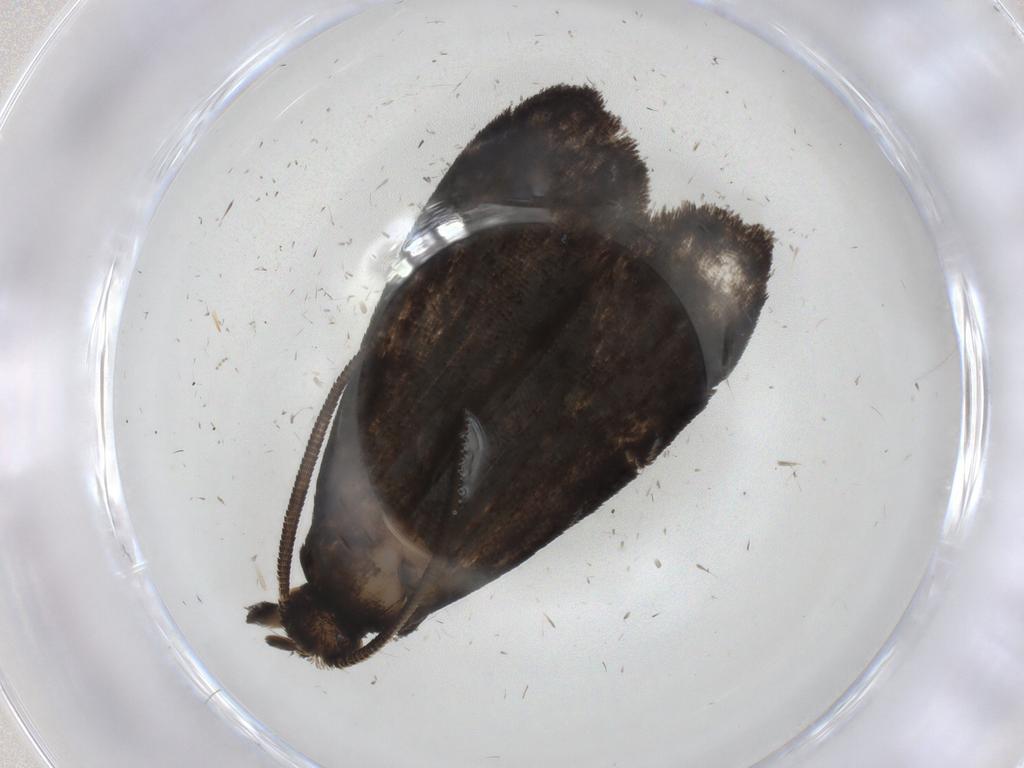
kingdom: Animalia
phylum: Arthropoda
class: Insecta
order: Lepidoptera
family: Dryadaulidae
